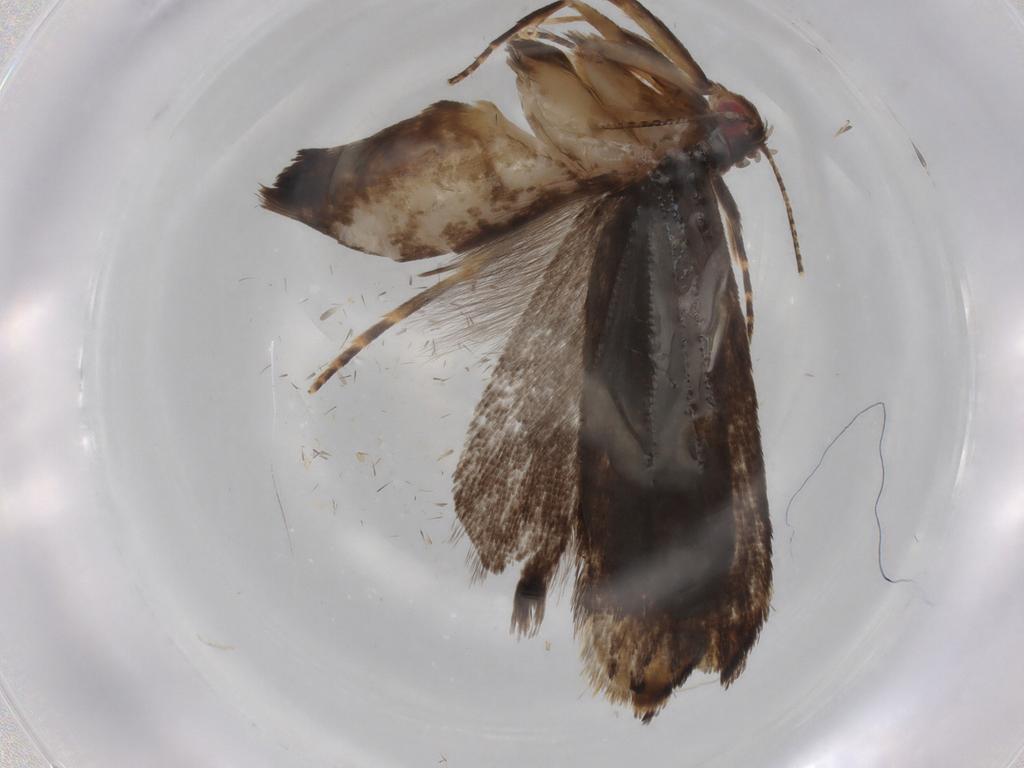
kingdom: Animalia
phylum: Arthropoda
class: Insecta
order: Lepidoptera
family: Gelechiidae
